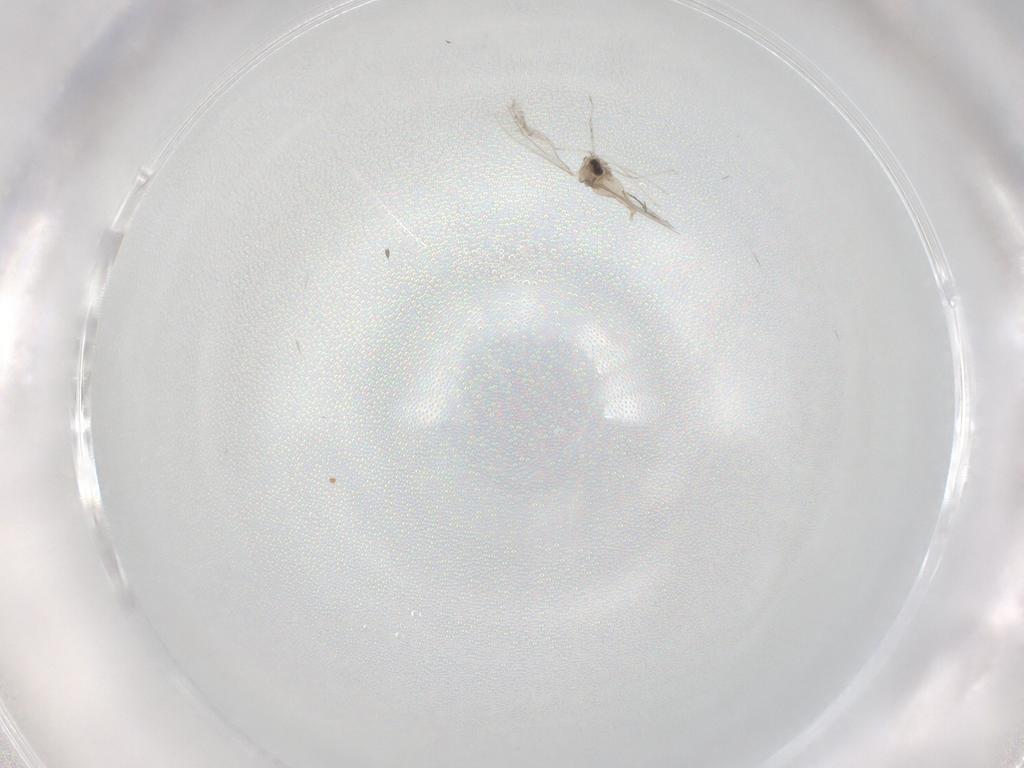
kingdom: Animalia
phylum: Arthropoda
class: Insecta
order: Diptera
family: Cecidomyiidae
